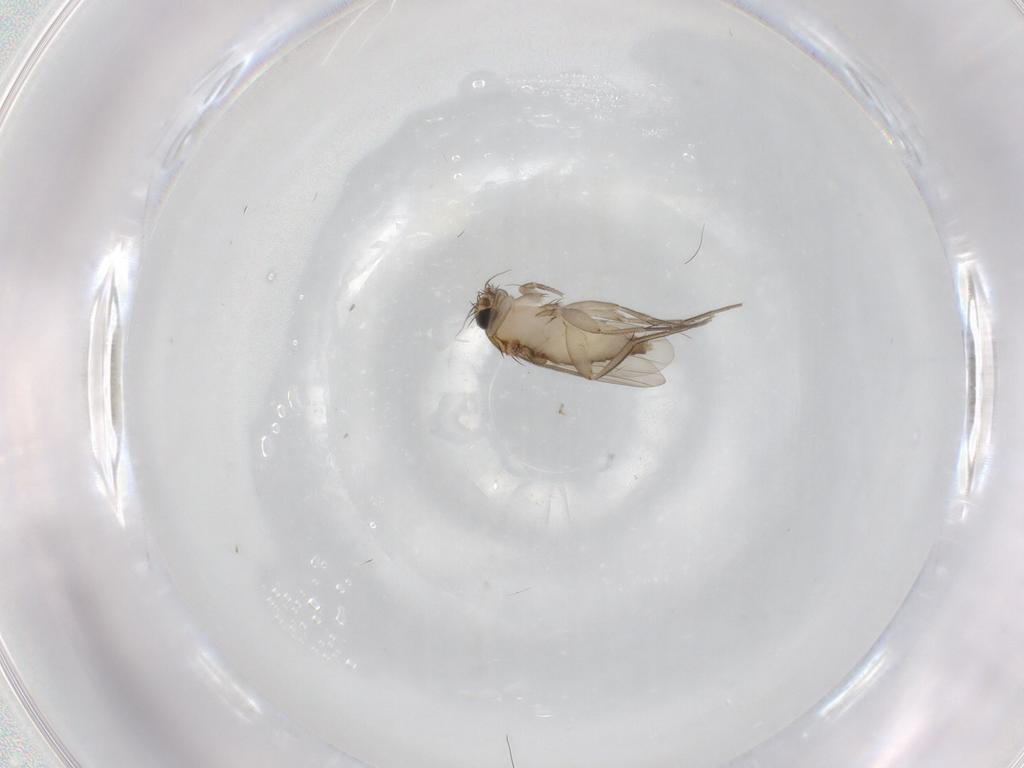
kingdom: Animalia
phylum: Arthropoda
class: Insecta
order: Diptera
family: Phoridae
